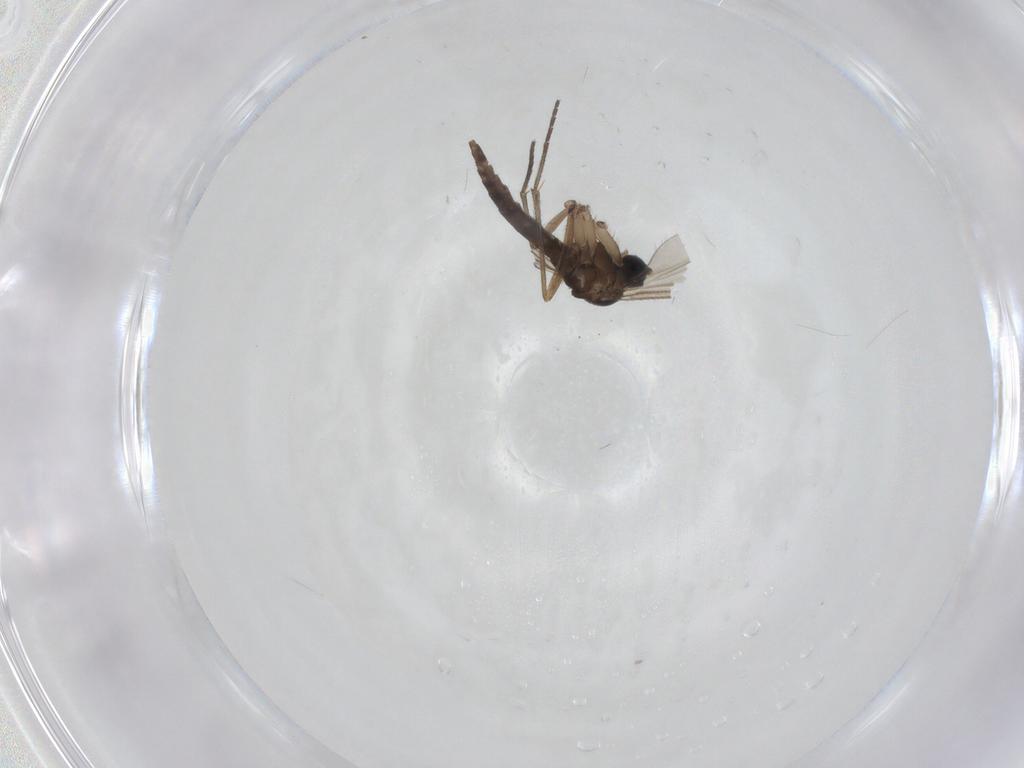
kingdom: Animalia
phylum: Arthropoda
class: Insecta
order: Diptera
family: Sciaridae
